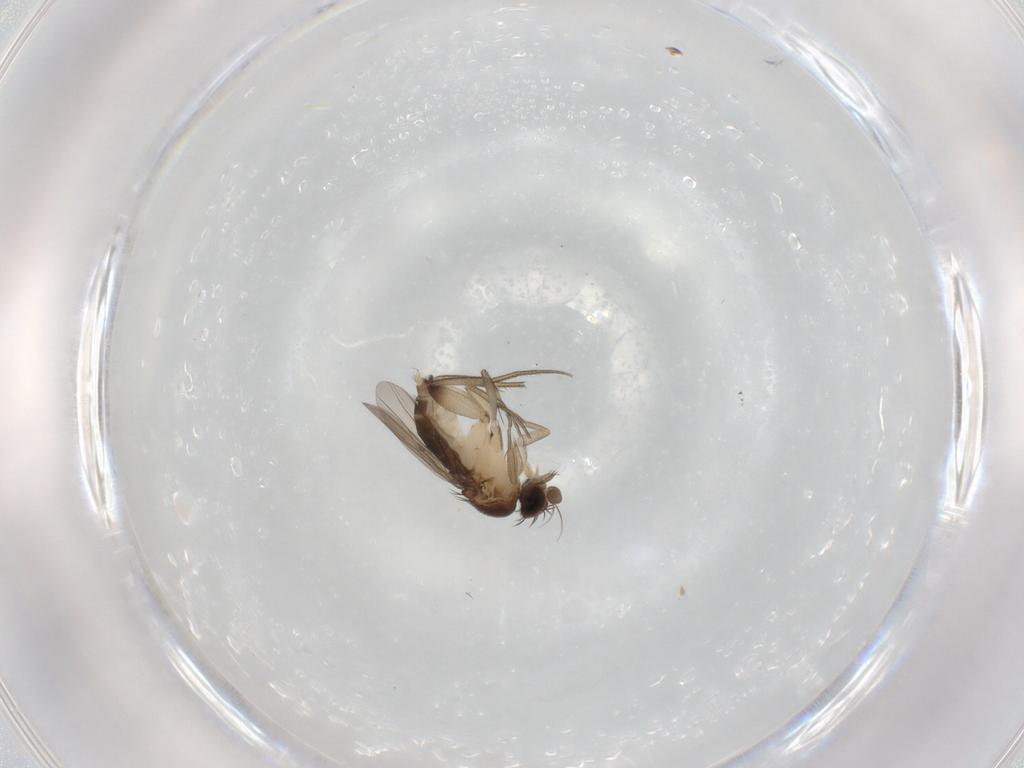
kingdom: Animalia
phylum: Arthropoda
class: Insecta
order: Diptera
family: Phoridae
